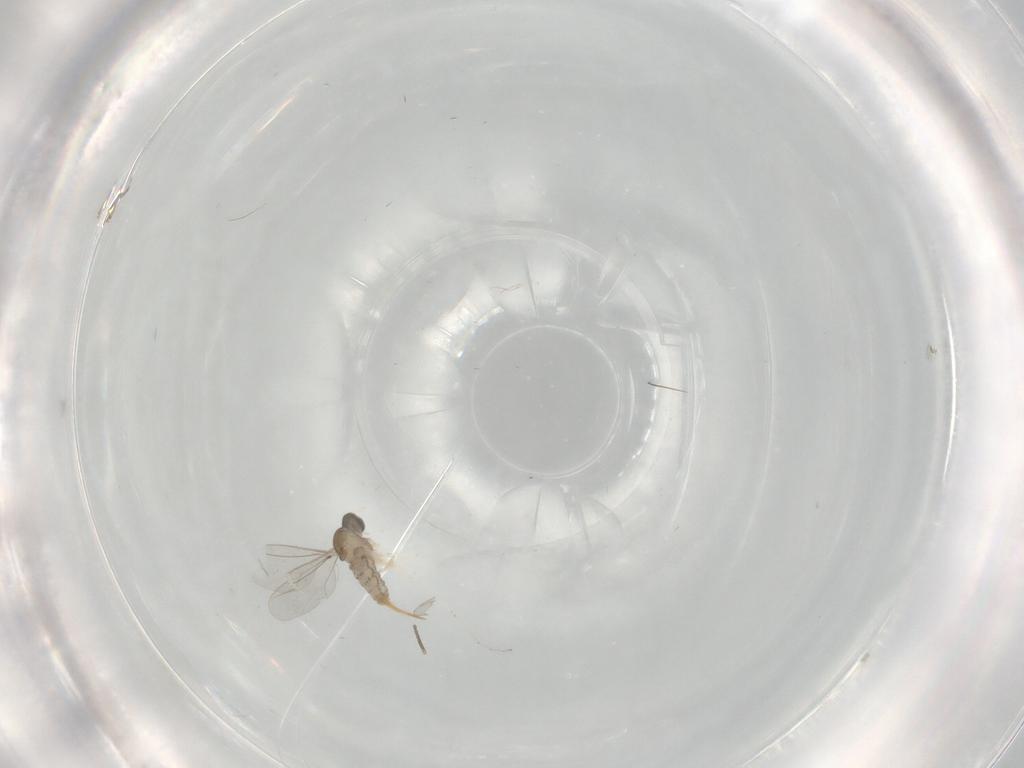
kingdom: Animalia
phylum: Arthropoda
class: Insecta
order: Diptera
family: Cecidomyiidae
